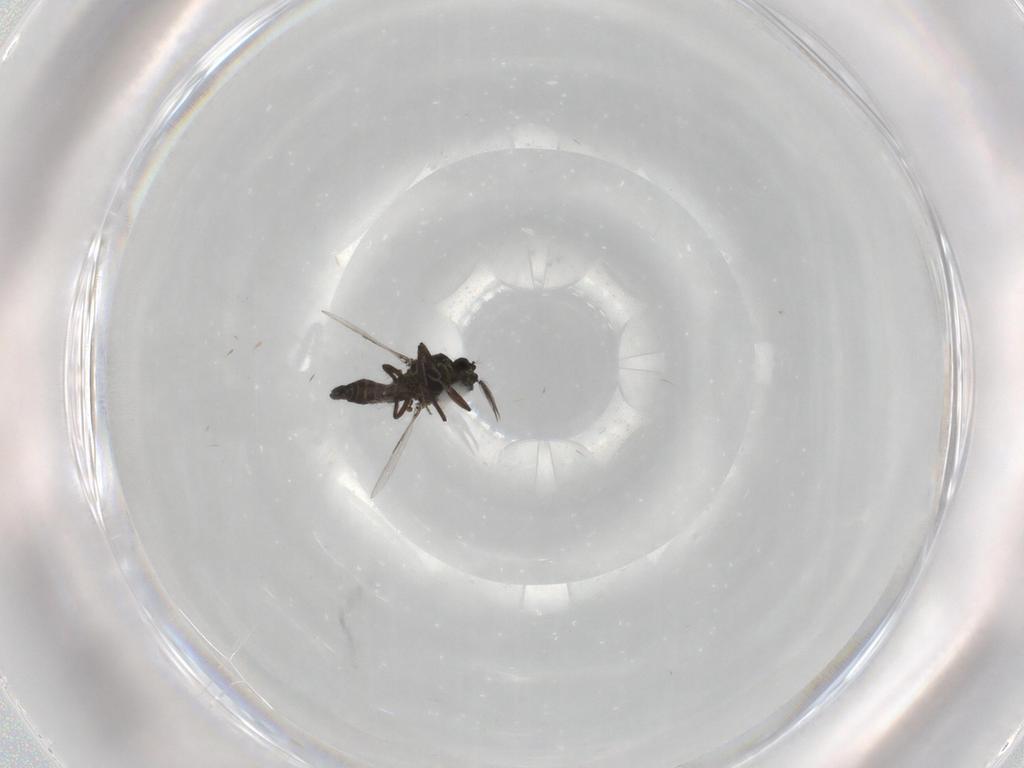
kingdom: Animalia
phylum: Arthropoda
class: Insecta
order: Diptera
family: Ceratopogonidae
